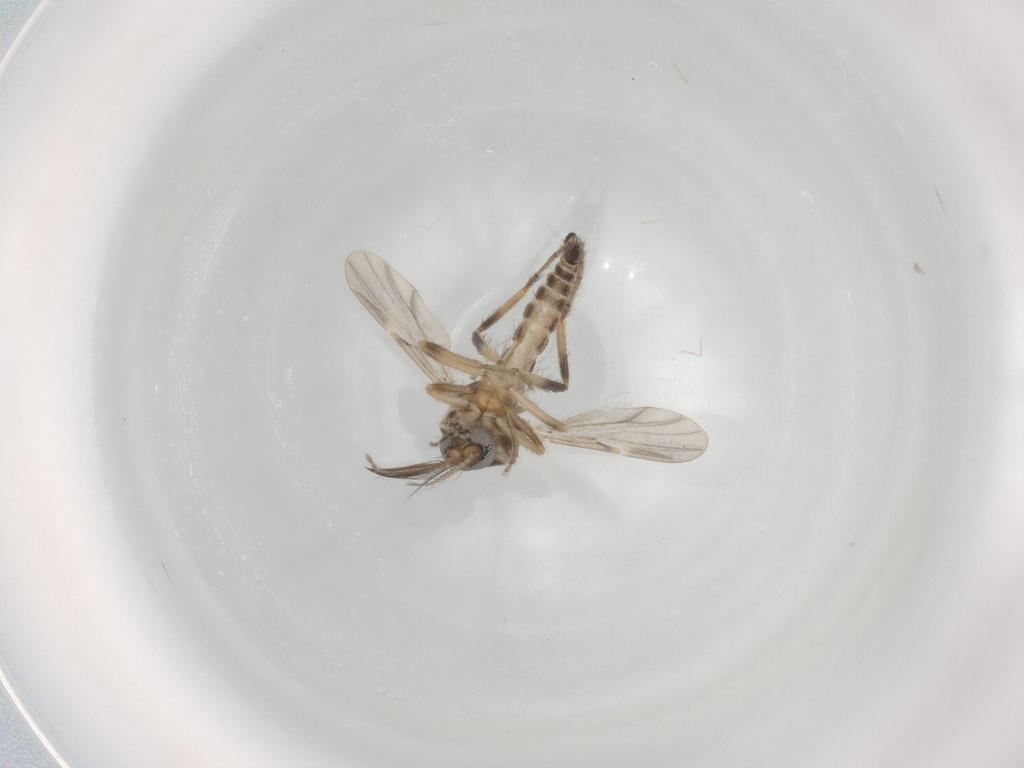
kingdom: Animalia
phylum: Arthropoda
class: Insecta
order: Diptera
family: Ceratopogonidae
